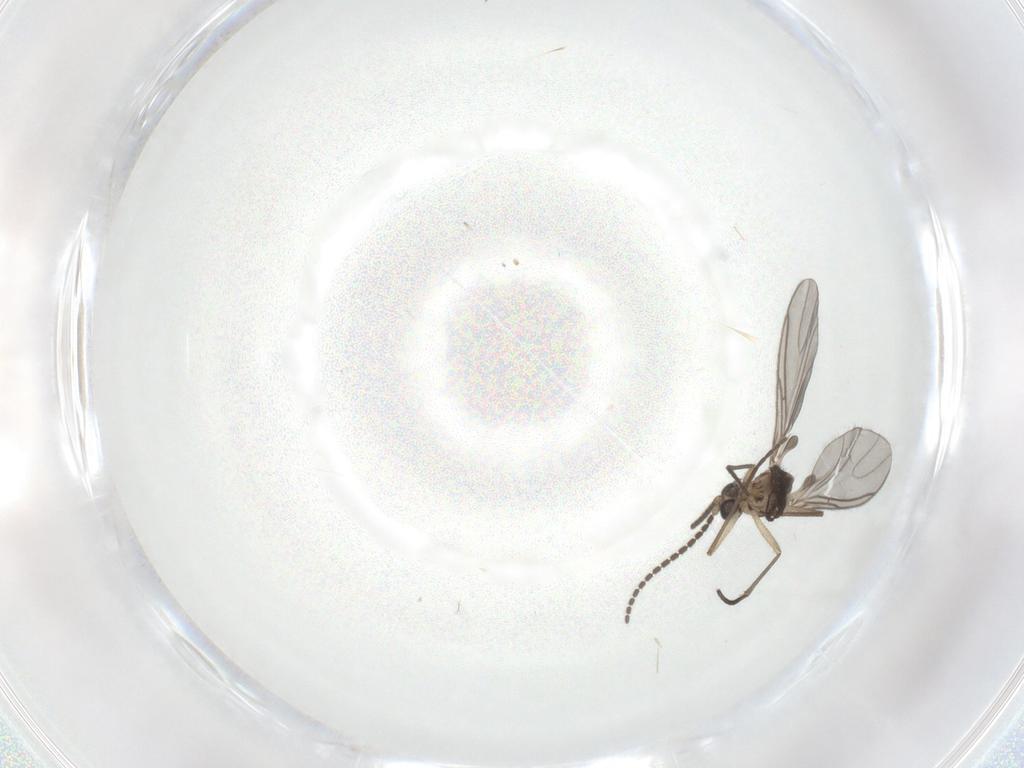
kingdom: Animalia
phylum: Arthropoda
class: Insecta
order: Diptera
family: Sciaridae
